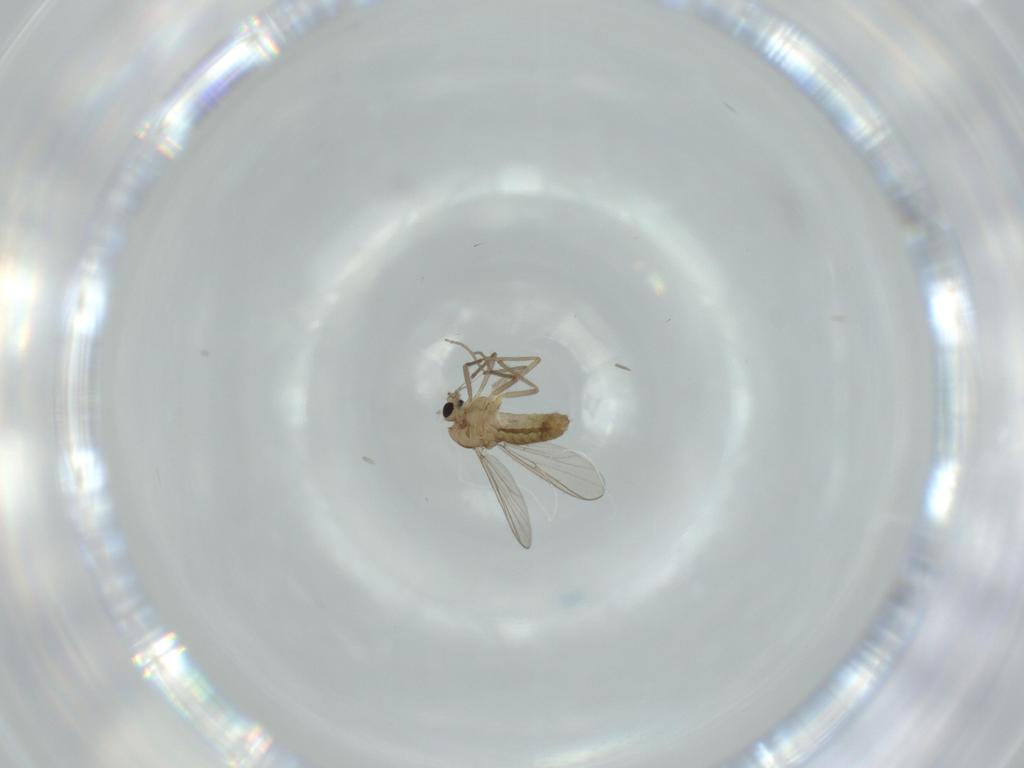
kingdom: Animalia
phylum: Arthropoda
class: Insecta
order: Diptera
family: Chironomidae
